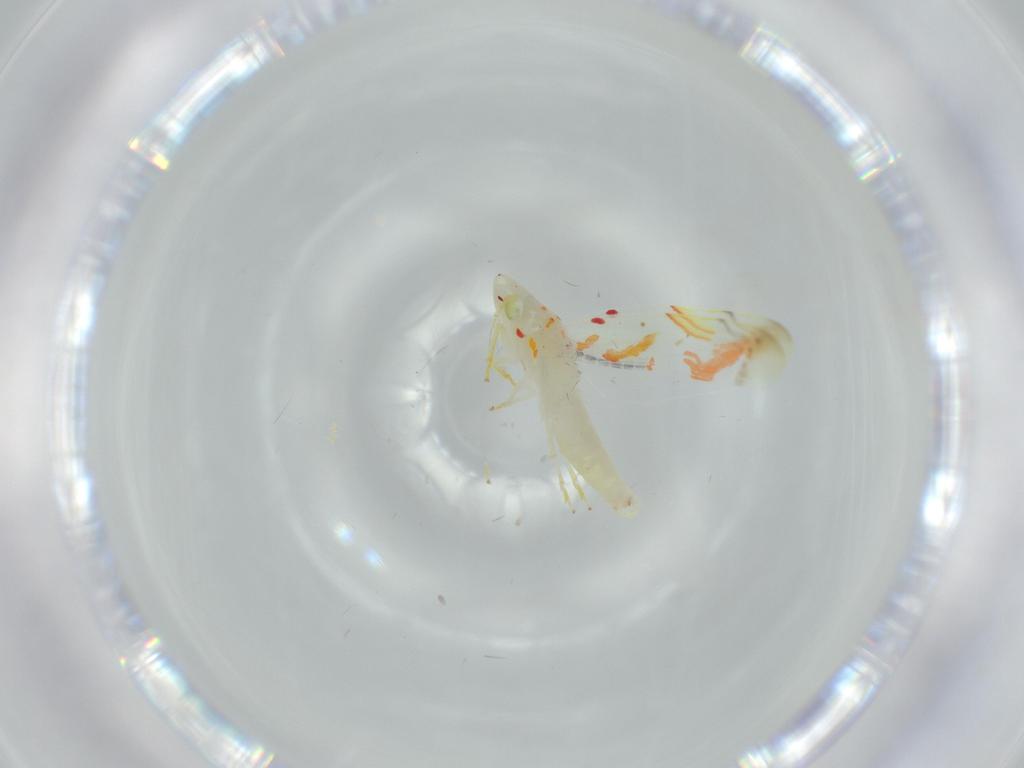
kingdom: Animalia
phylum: Arthropoda
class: Insecta
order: Hemiptera
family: Cicadellidae
